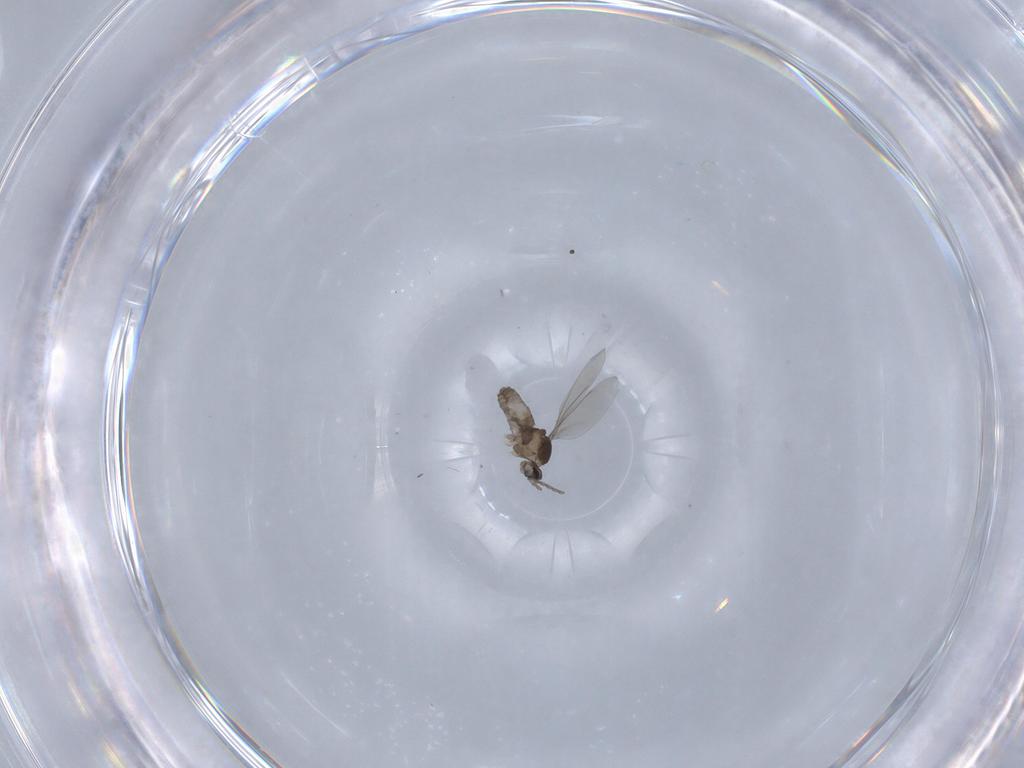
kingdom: Animalia
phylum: Arthropoda
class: Insecta
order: Diptera
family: Cecidomyiidae
